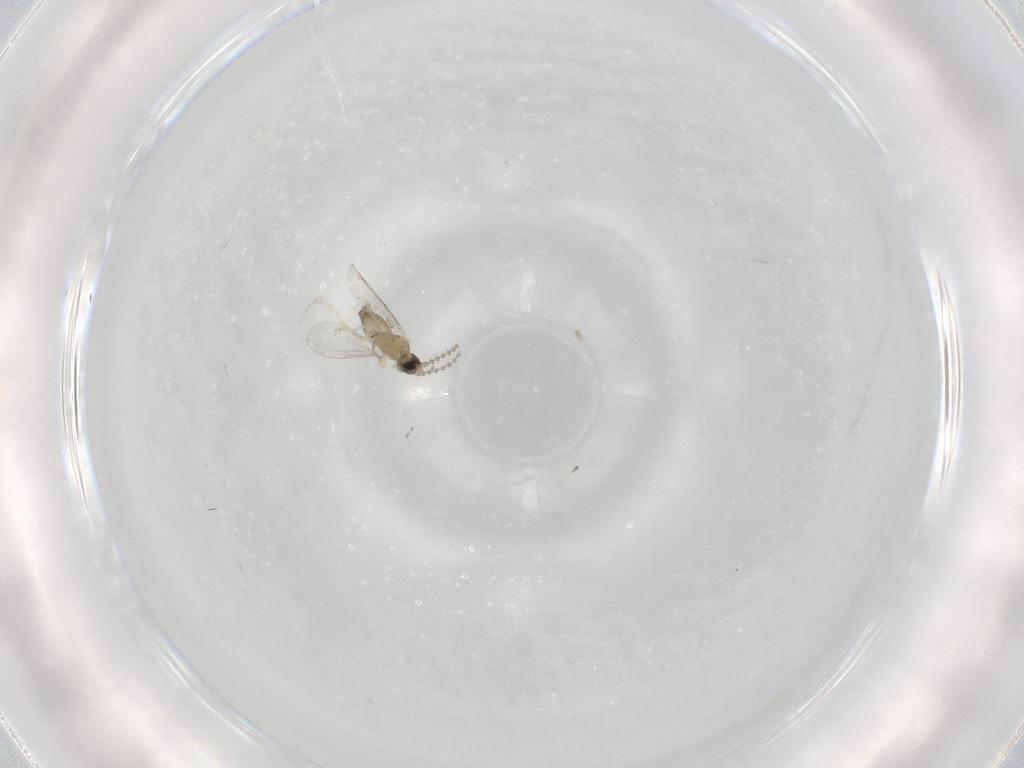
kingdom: Animalia
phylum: Arthropoda
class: Insecta
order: Diptera
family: Cecidomyiidae
